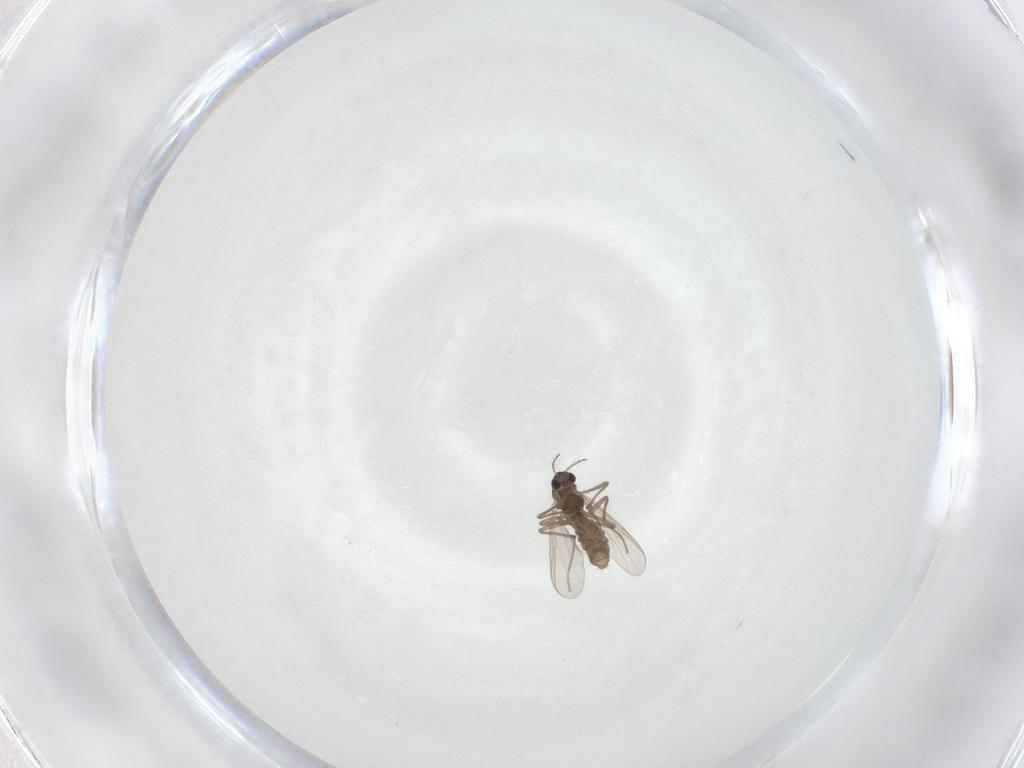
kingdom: Animalia
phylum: Arthropoda
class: Insecta
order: Diptera
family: Chironomidae
